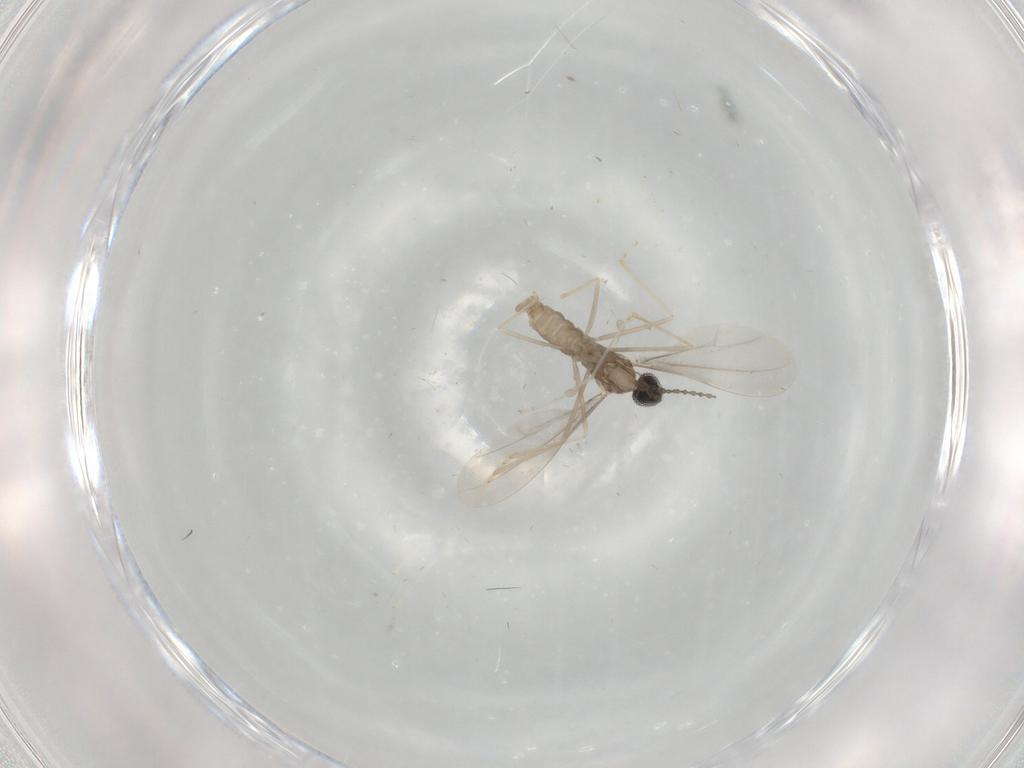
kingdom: Animalia
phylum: Arthropoda
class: Insecta
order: Diptera
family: Cecidomyiidae
